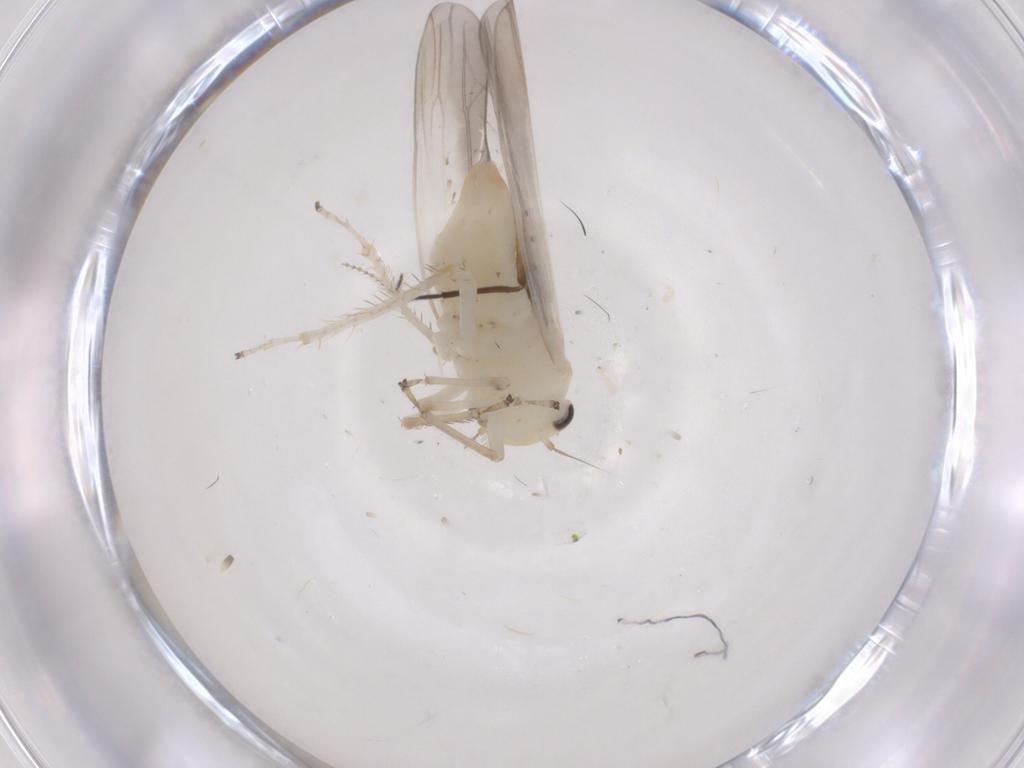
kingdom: Animalia
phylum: Arthropoda
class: Insecta
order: Hemiptera
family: Cicadellidae
